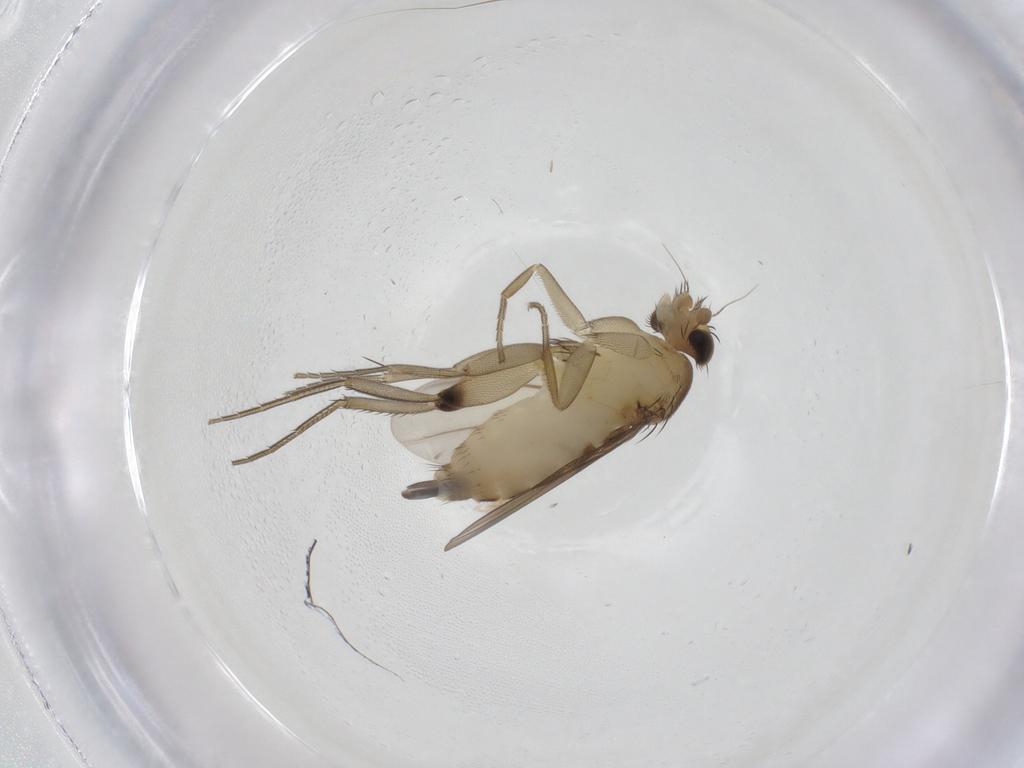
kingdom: Animalia
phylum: Arthropoda
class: Insecta
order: Diptera
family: Phoridae
